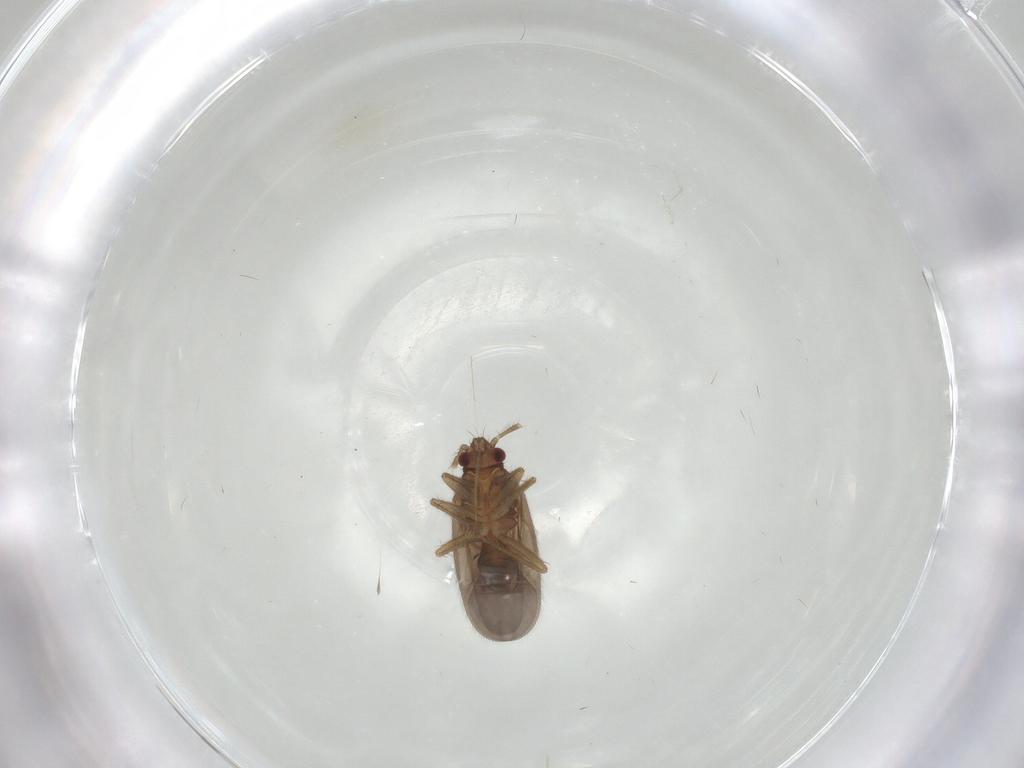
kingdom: Animalia
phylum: Arthropoda
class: Insecta
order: Hemiptera
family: Ceratocombidae
